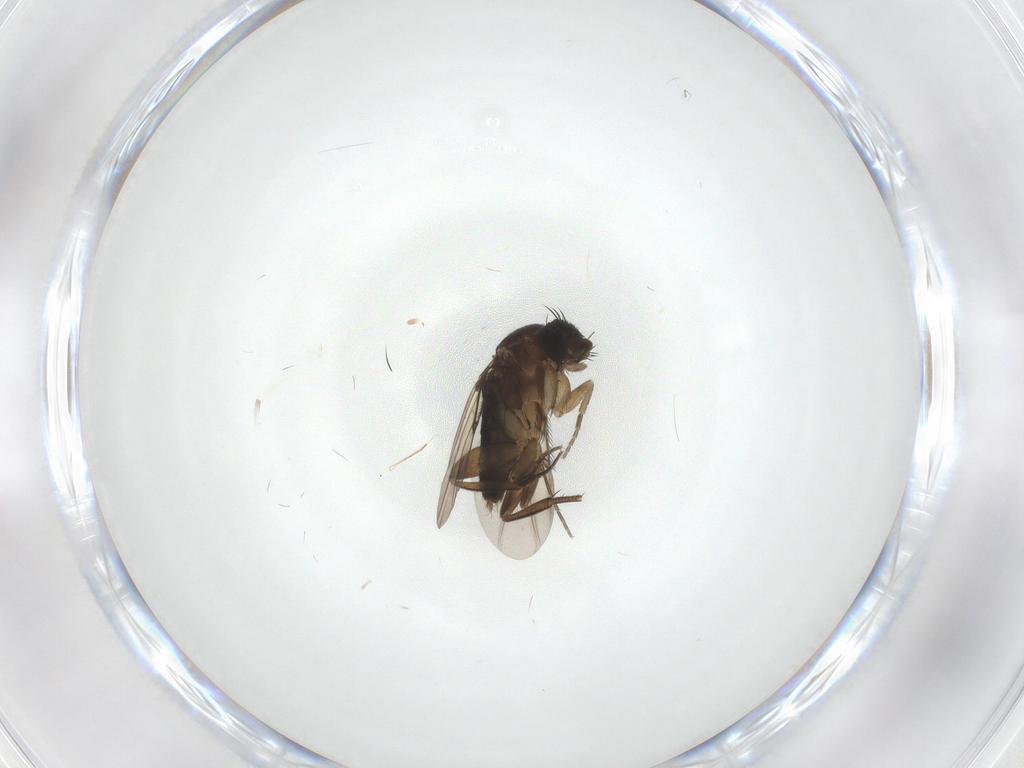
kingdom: Animalia
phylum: Arthropoda
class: Insecta
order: Diptera
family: Phoridae
